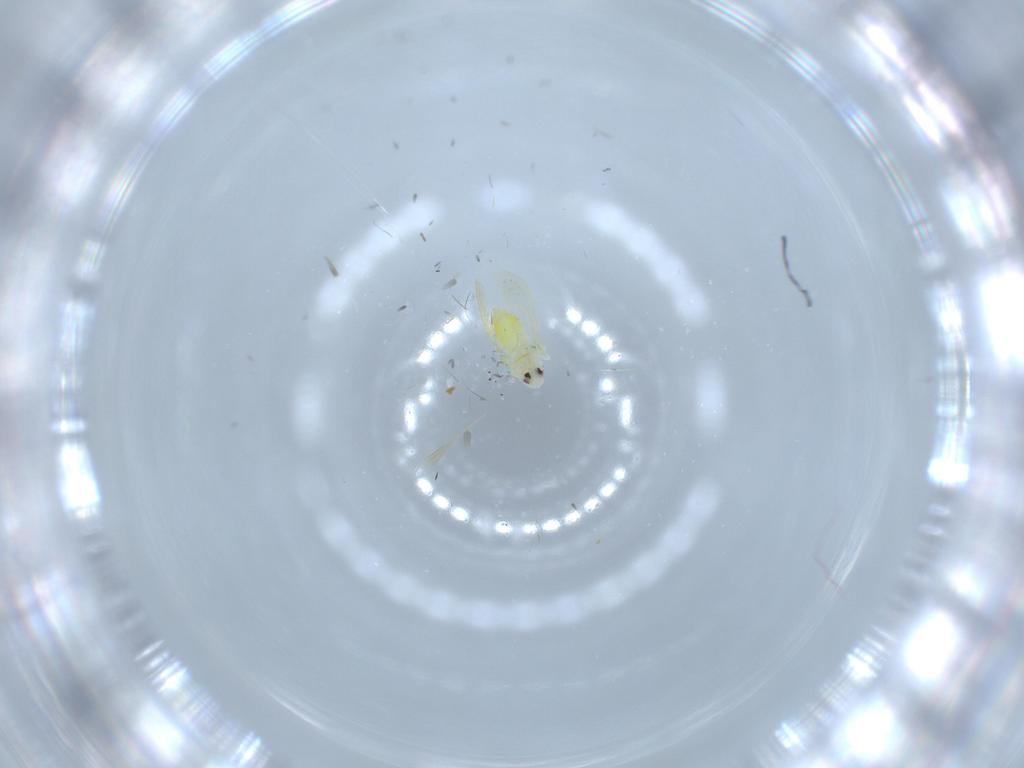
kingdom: Animalia
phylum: Arthropoda
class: Insecta
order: Hemiptera
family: Aleyrodidae
